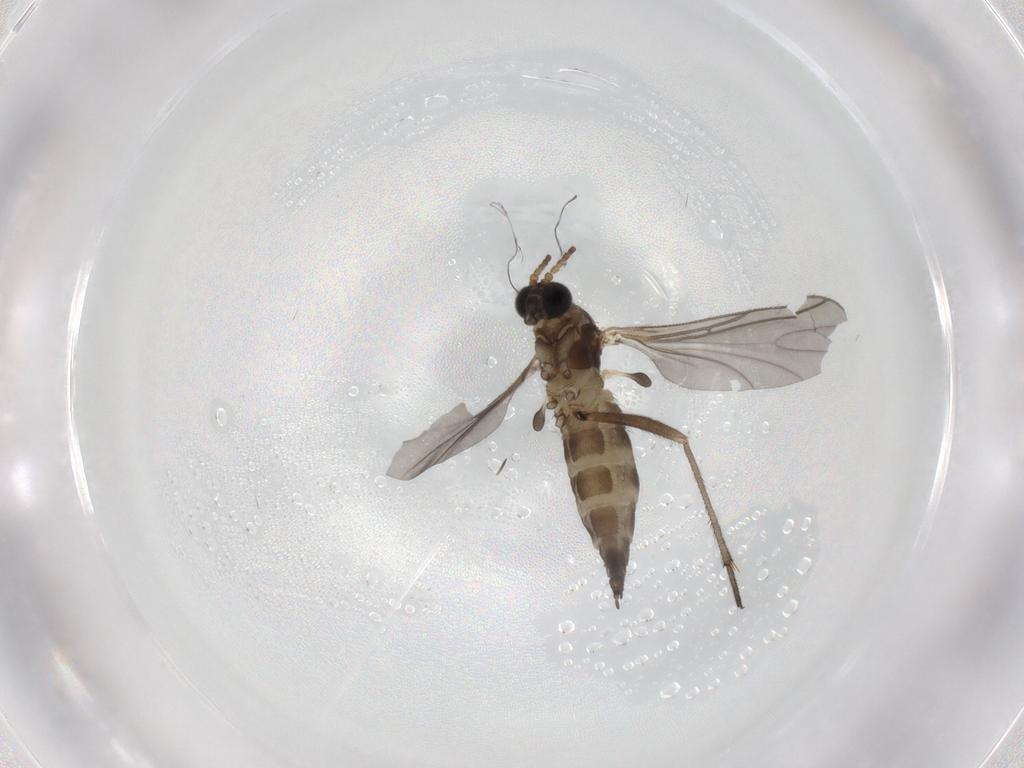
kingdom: Animalia
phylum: Arthropoda
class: Insecta
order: Diptera
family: Sciaridae
